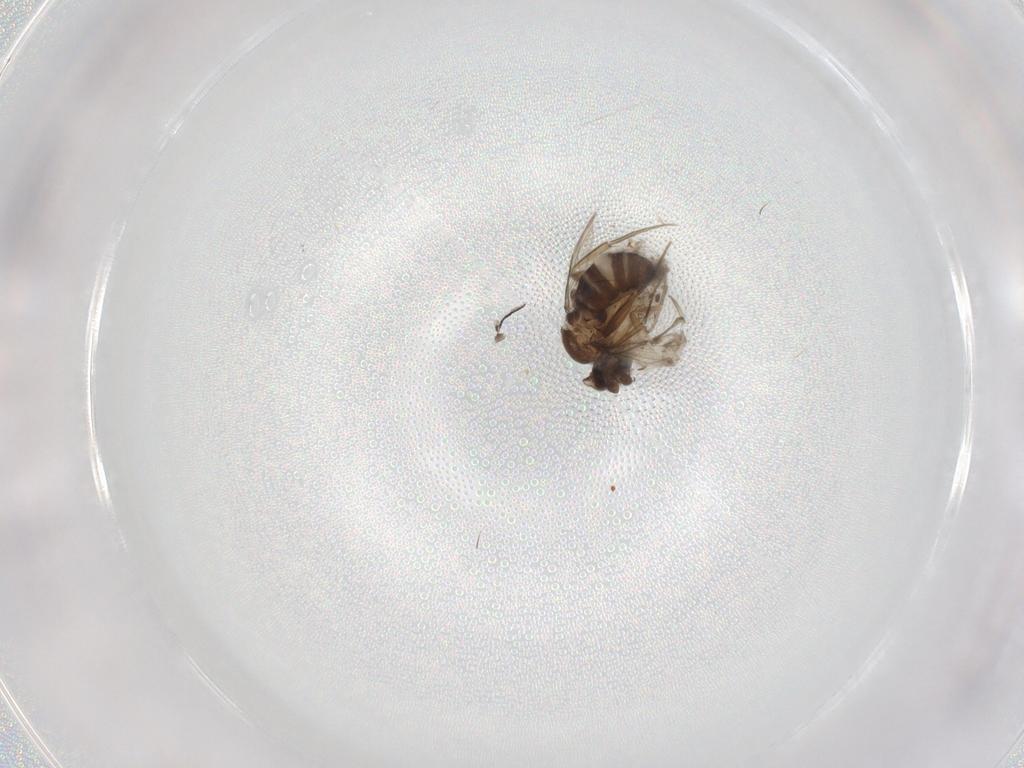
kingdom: Animalia
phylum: Arthropoda
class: Insecta
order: Diptera
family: Phoridae
